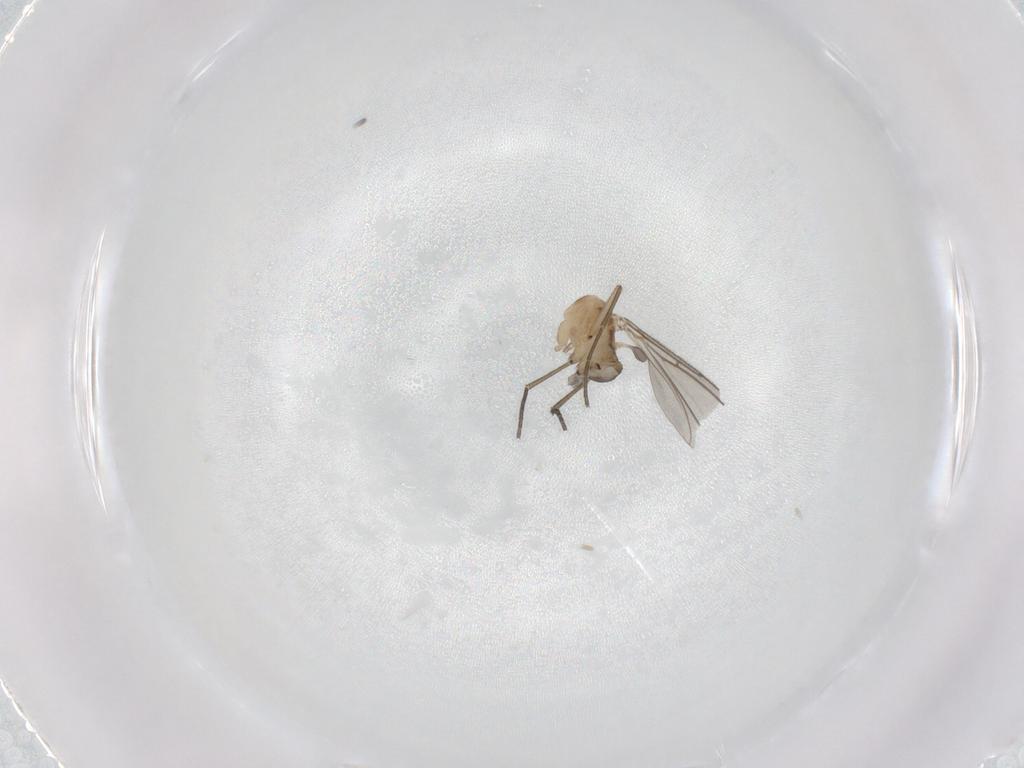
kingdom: Animalia
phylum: Arthropoda
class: Insecta
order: Diptera
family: Sciaridae
